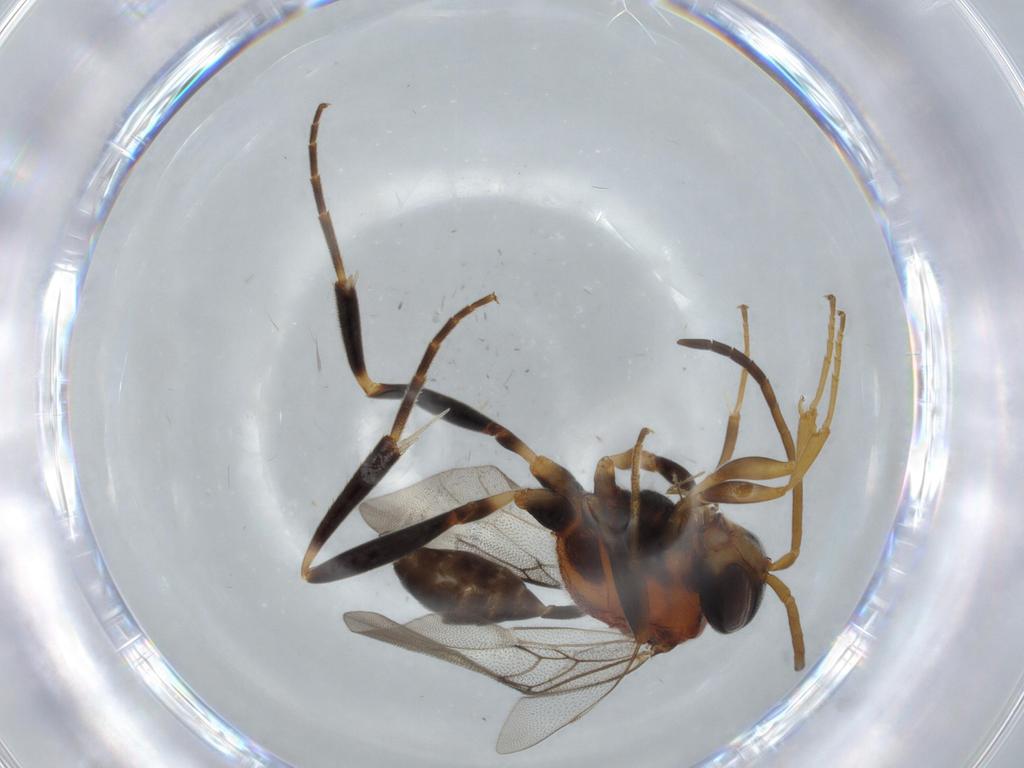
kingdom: Animalia
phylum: Arthropoda
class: Insecta
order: Hymenoptera
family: Evaniidae
